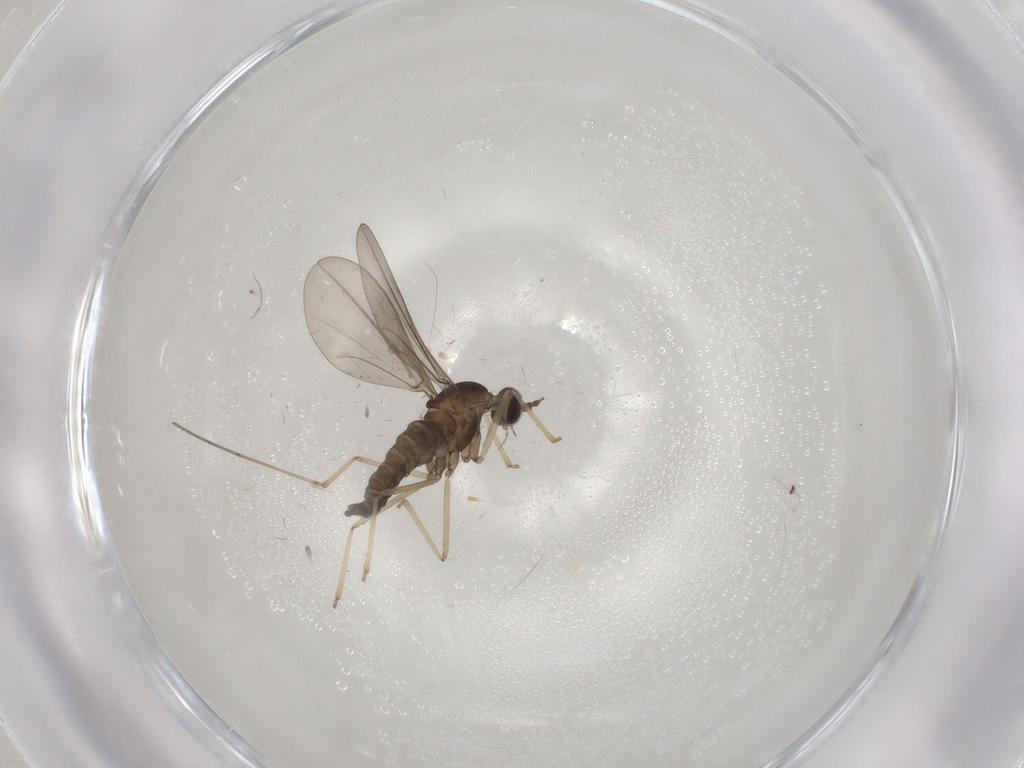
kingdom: Animalia
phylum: Arthropoda
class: Insecta
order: Diptera
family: Cecidomyiidae
